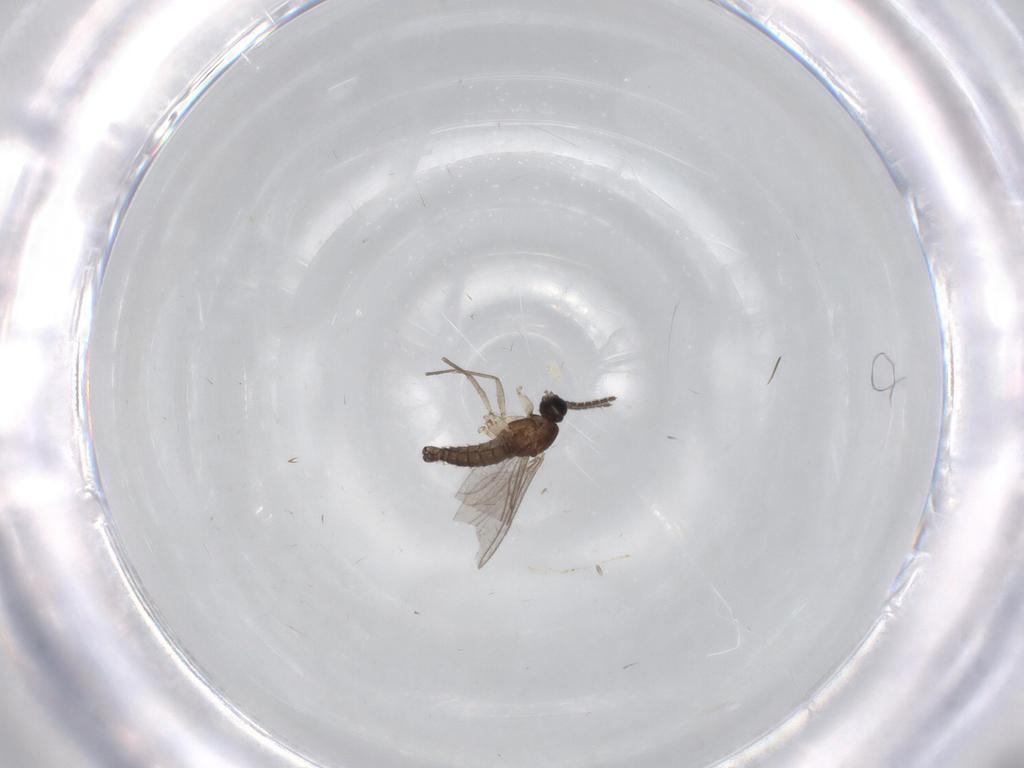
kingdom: Animalia
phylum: Arthropoda
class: Insecta
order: Diptera
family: Sciaridae
